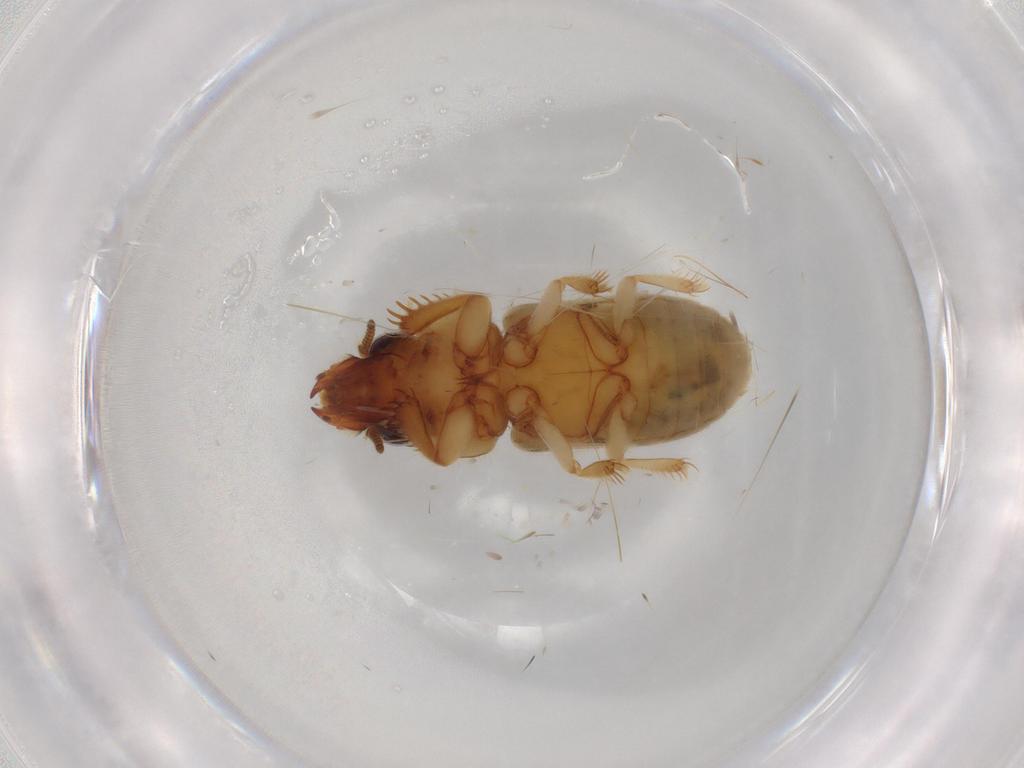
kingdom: Animalia
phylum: Arthropoda
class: Insecta
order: Coleoptera
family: Heteroceridae
